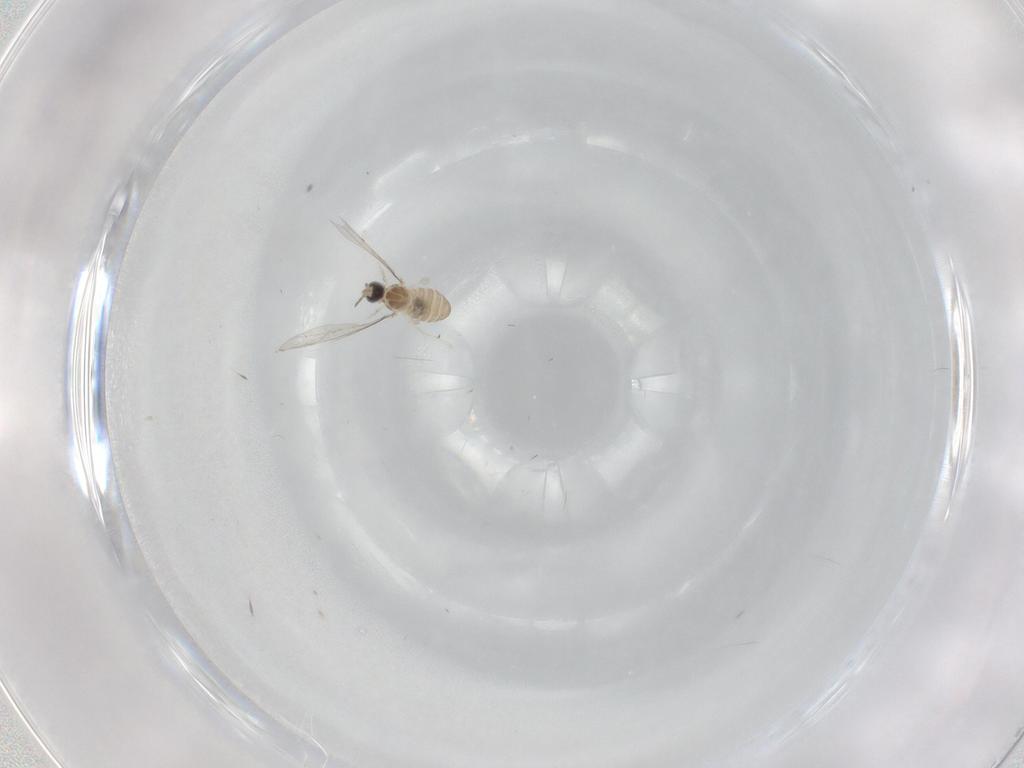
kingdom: Animalia
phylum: Arthropoda
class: Insecta
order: Diptera
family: Cecidomyiidae
